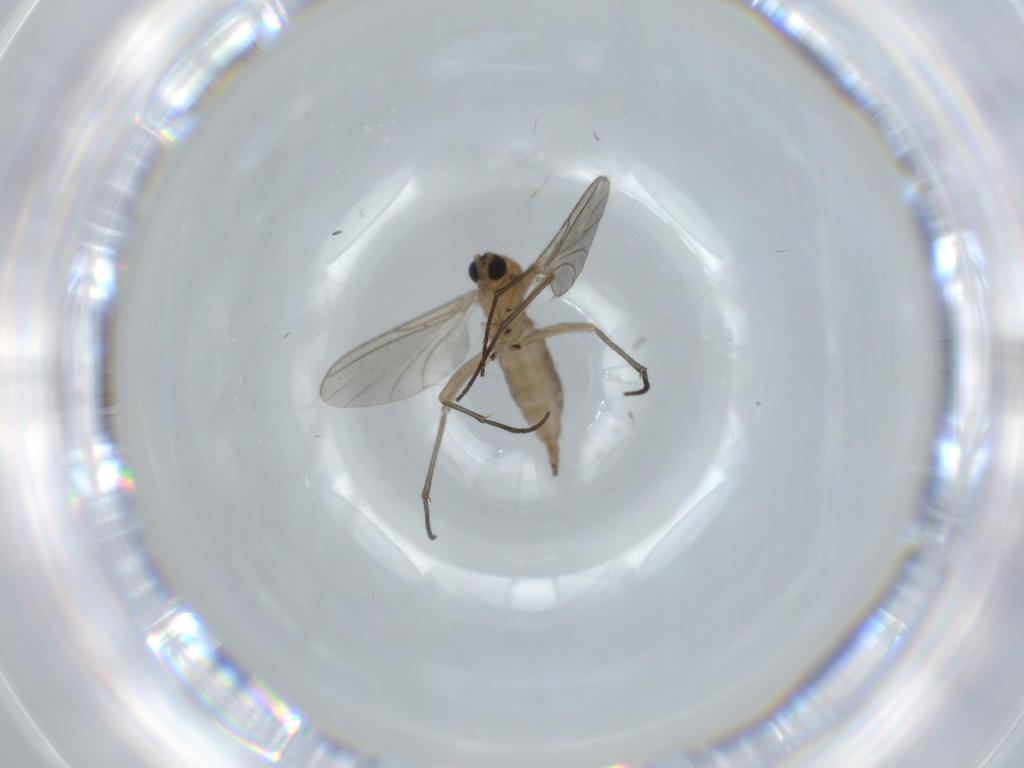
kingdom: Animalia
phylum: Arthropoda
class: Insecta
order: Diptera
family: Sciaridae
